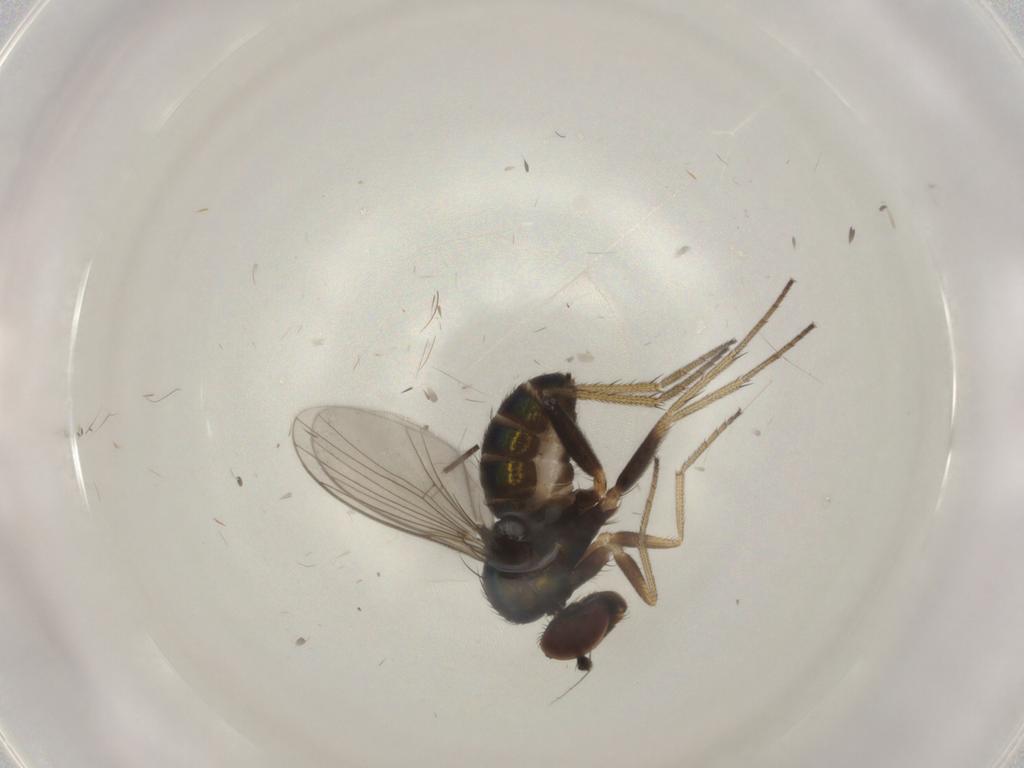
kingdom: Animalia
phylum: Arthropoda
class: Insecta
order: Diptera
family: Dolichopodidae
